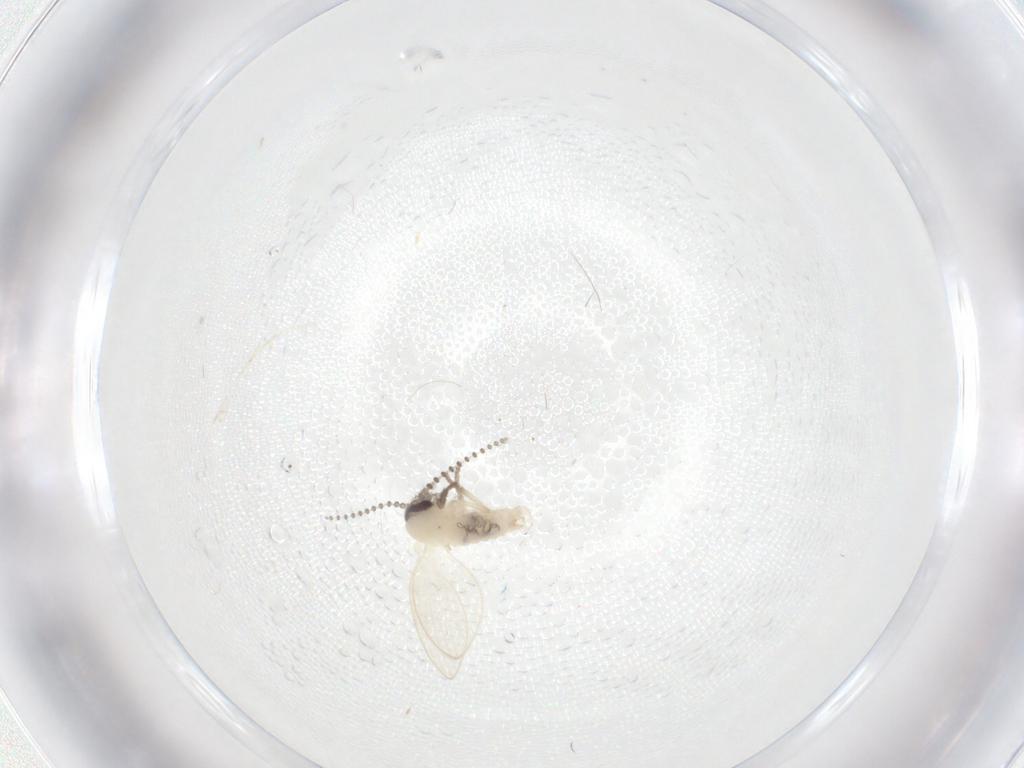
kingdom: Animalia
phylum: Arthropoda
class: Insecta
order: Diptera
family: Psychodidae
